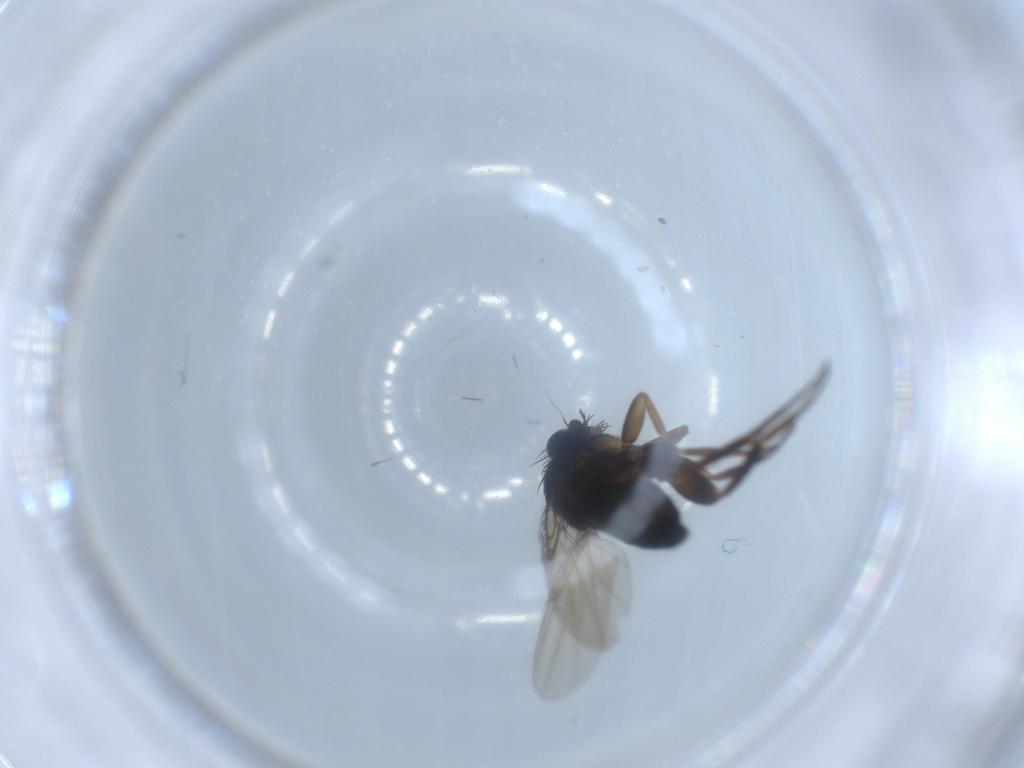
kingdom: Animalia
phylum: Arthropoda
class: Insecta
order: Diptera
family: Phoridae
